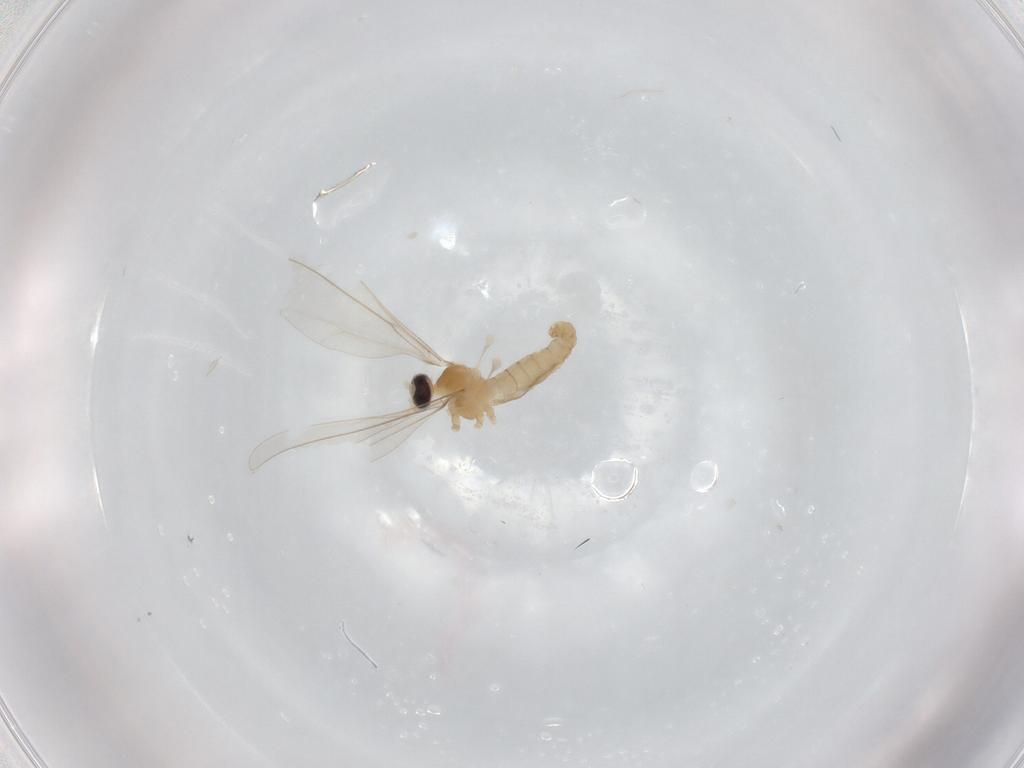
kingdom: Animalia
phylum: Arthropoda
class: Insecta
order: Diptera
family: Lauxaniidae
